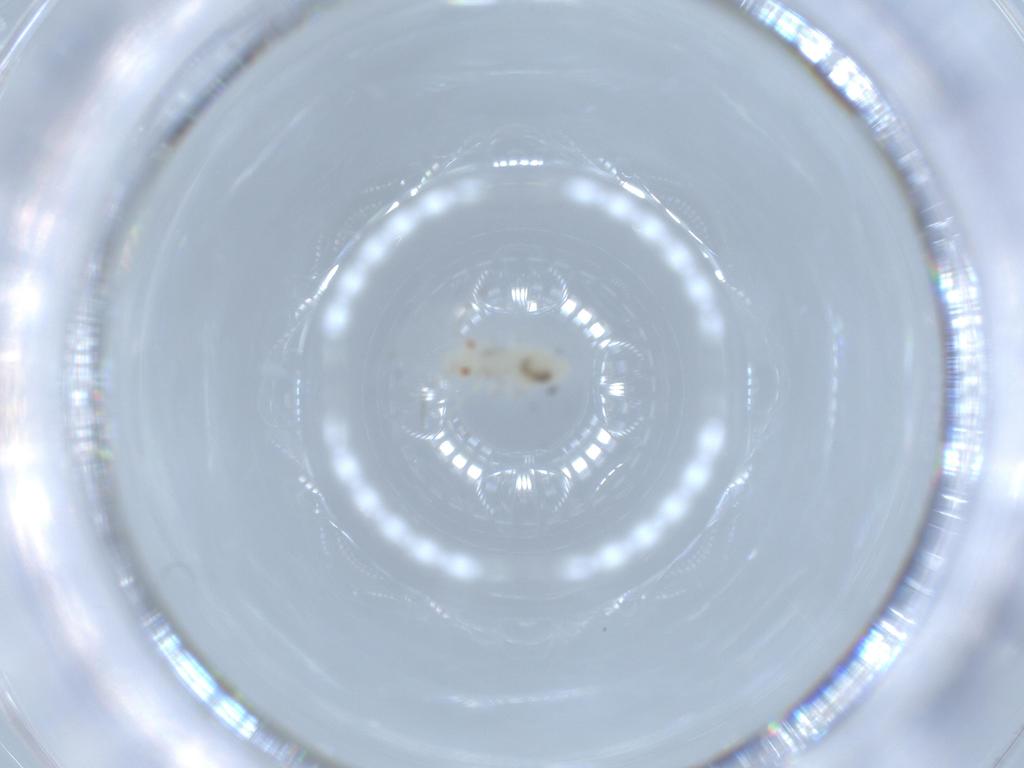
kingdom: Animalia
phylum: Arthropoda
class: Insecta
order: Psocodea
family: Caeciliusidae
